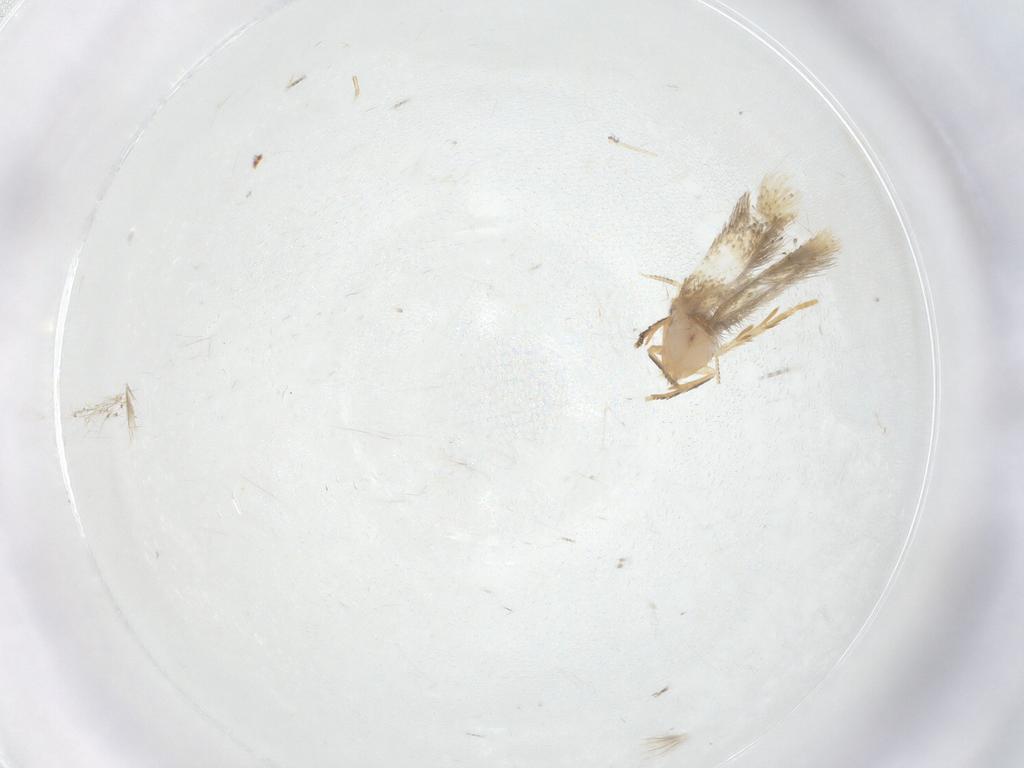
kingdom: Animalia
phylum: Arthropoda
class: Insecta
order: Lepidoptera
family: Nepticulidae
